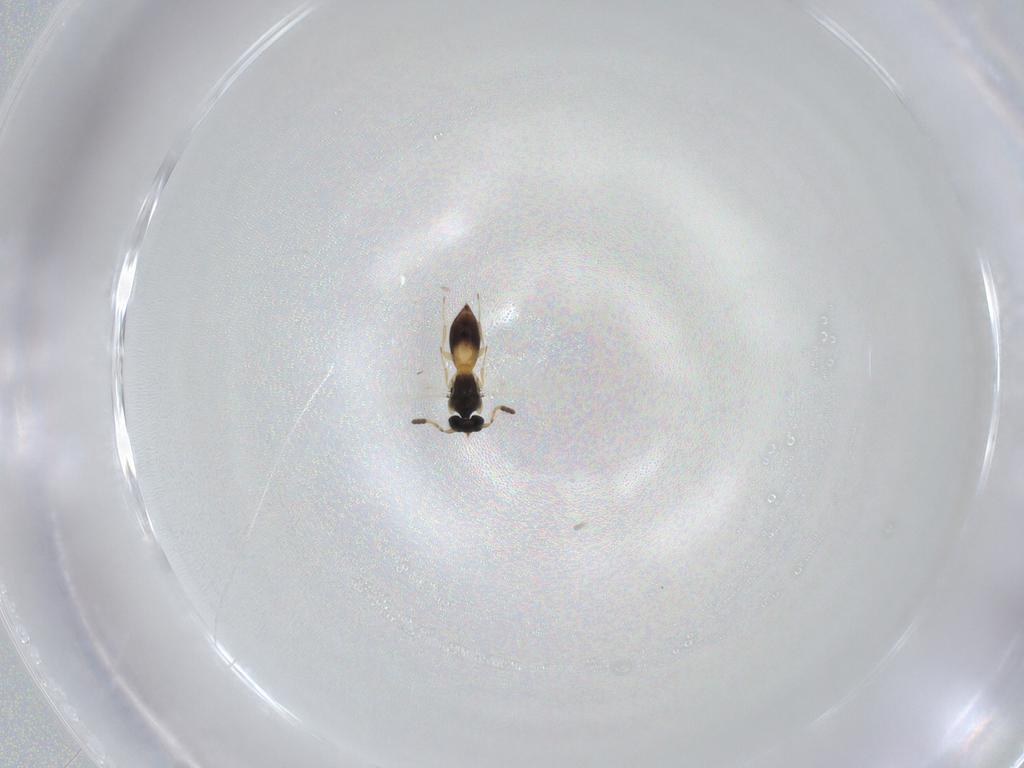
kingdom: Animalia
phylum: Arthropoda
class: Insecta
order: Hymenoptera
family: Scelionidae
